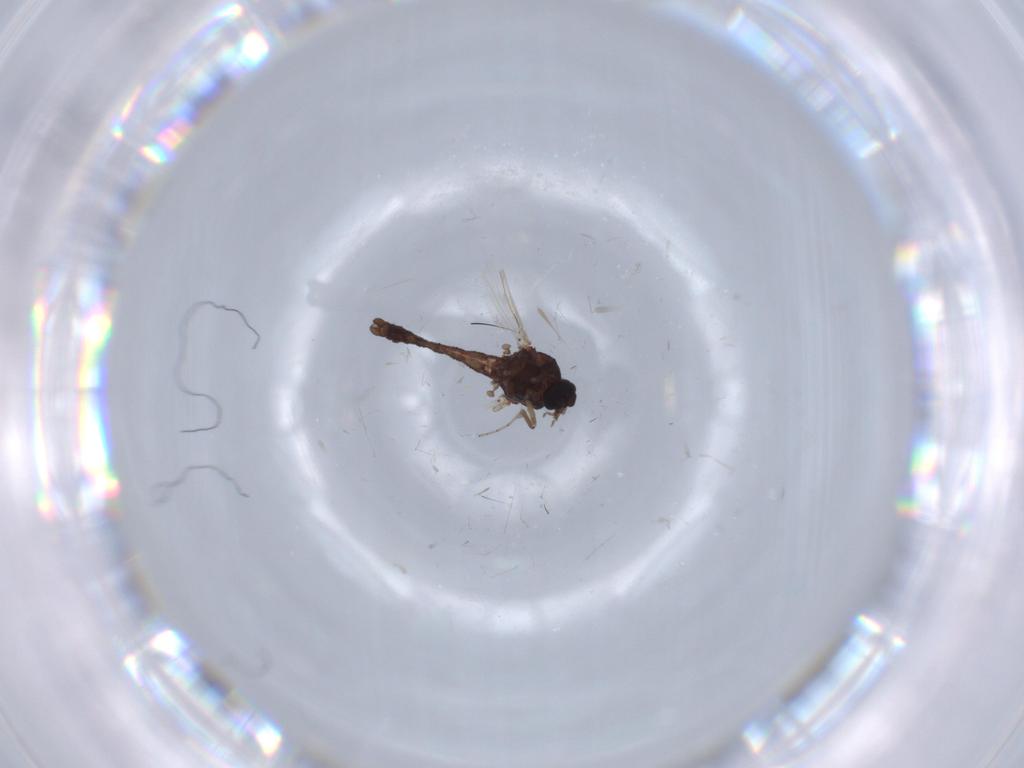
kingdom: Animalia
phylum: Arthropoda
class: Insecta
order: Diptera
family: Ceratopogonidae
